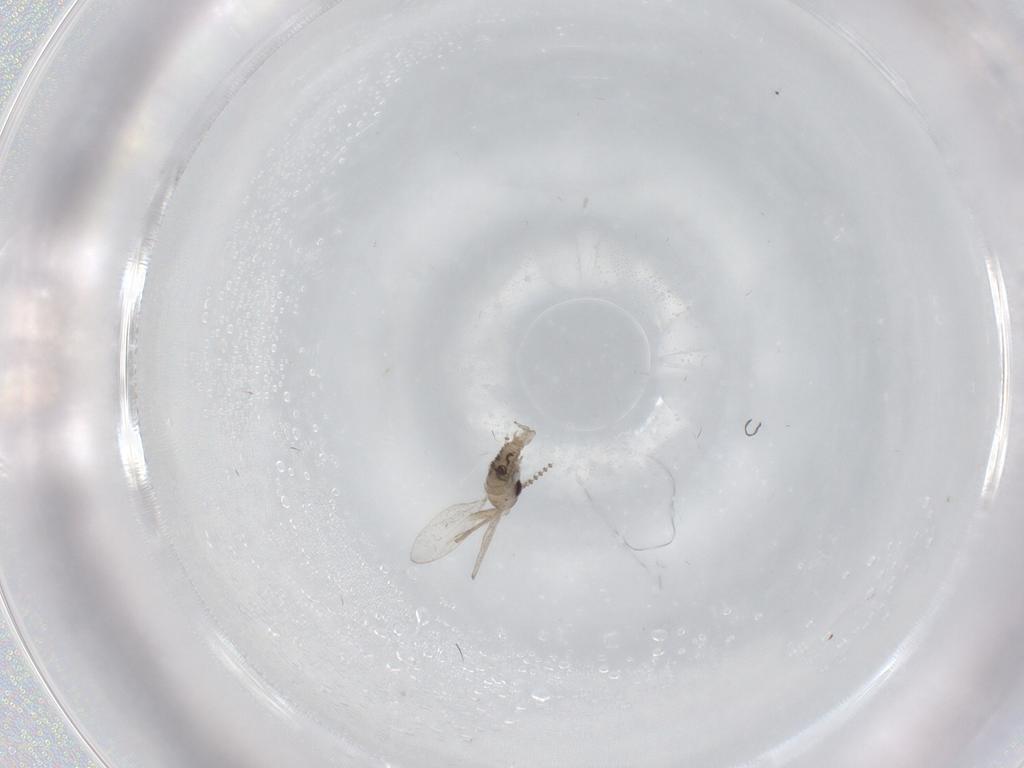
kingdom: Animalia
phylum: Arthropoda
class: Insecta
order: Diptera
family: Psychodidae
